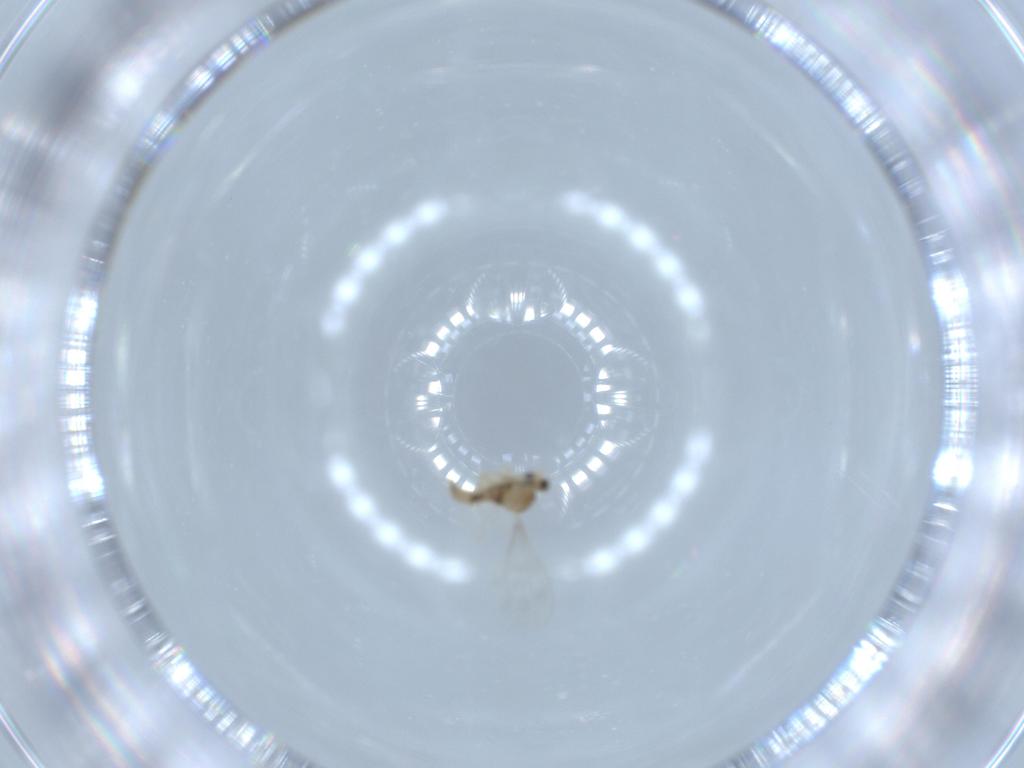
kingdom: Animalia
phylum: Arthropoda
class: Insecta
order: Diptera
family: Cecidomyiidae
